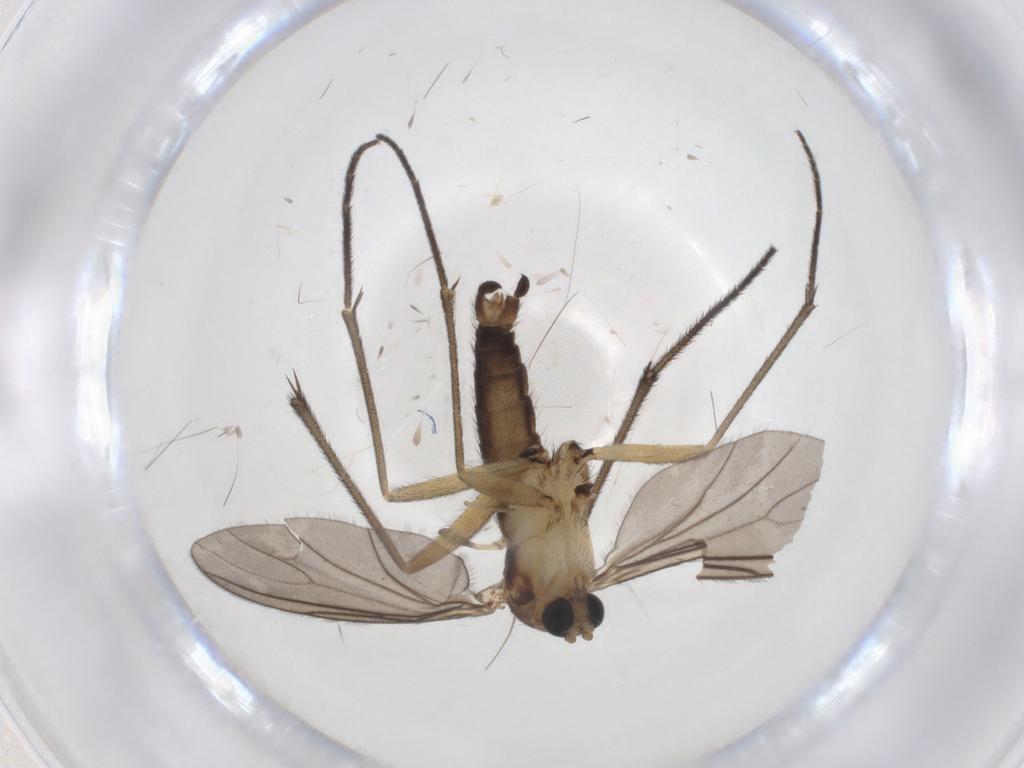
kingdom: Animalia
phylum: Arthropoda
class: Insecta
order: Diptera
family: Sciaridae
